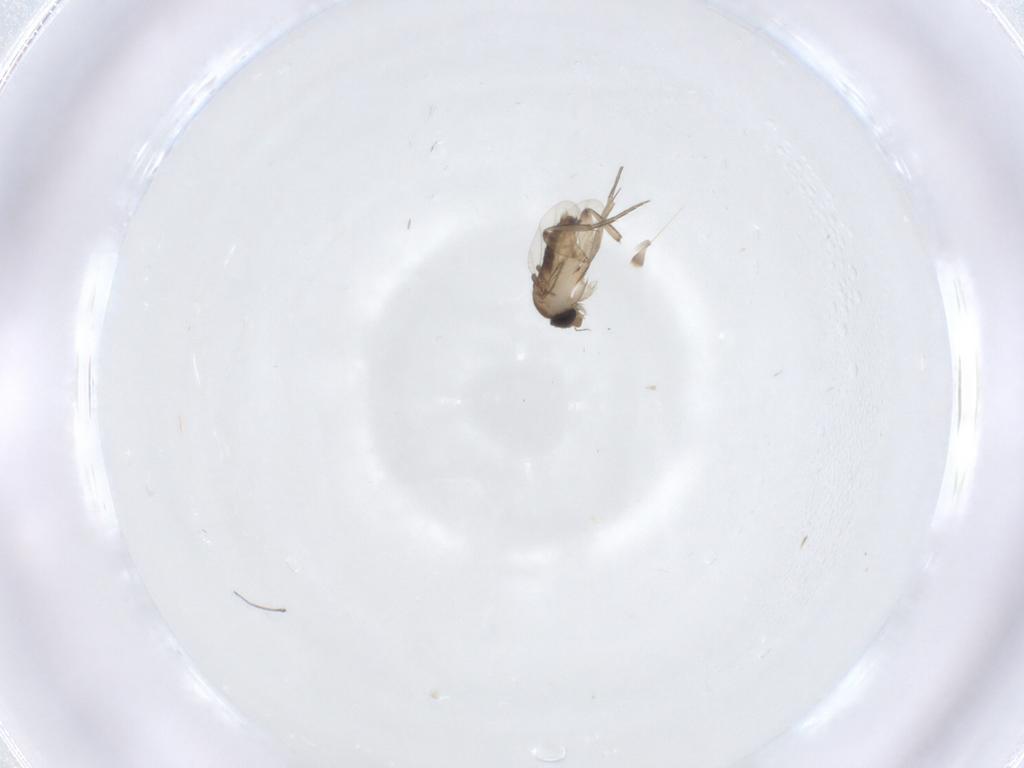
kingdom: Animalia
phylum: Arthropoda
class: Insecta
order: Diptera
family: Phoridae
